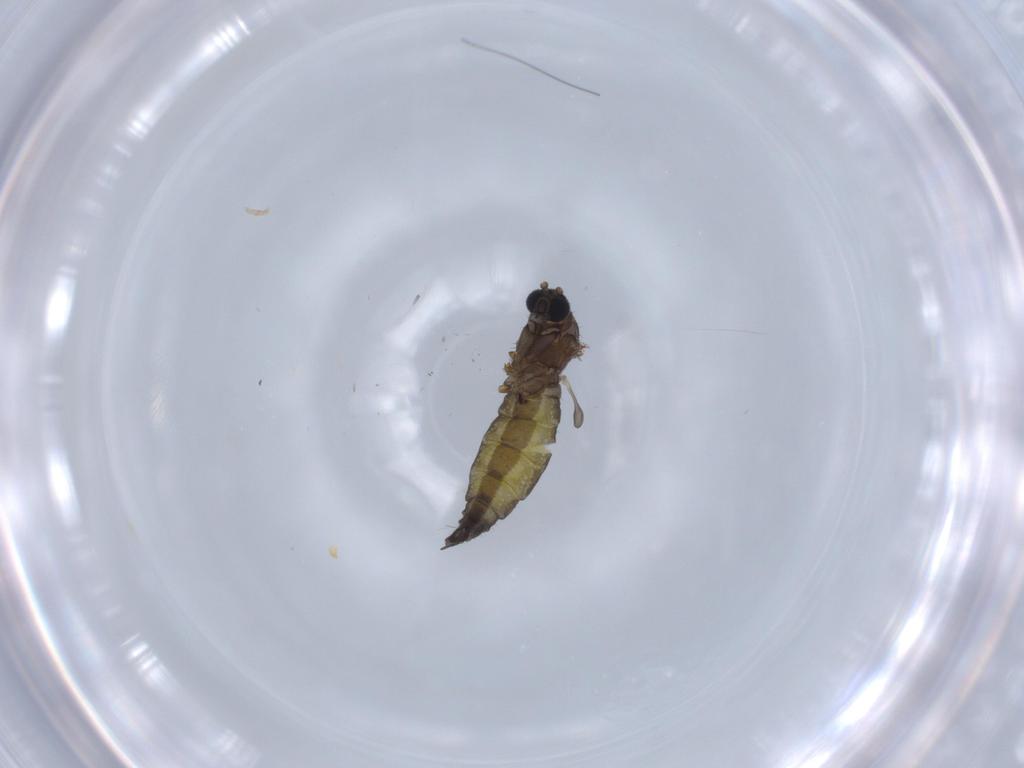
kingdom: Animalia
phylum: Arthropoda
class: Insecta
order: Diptera
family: Sciaridae
